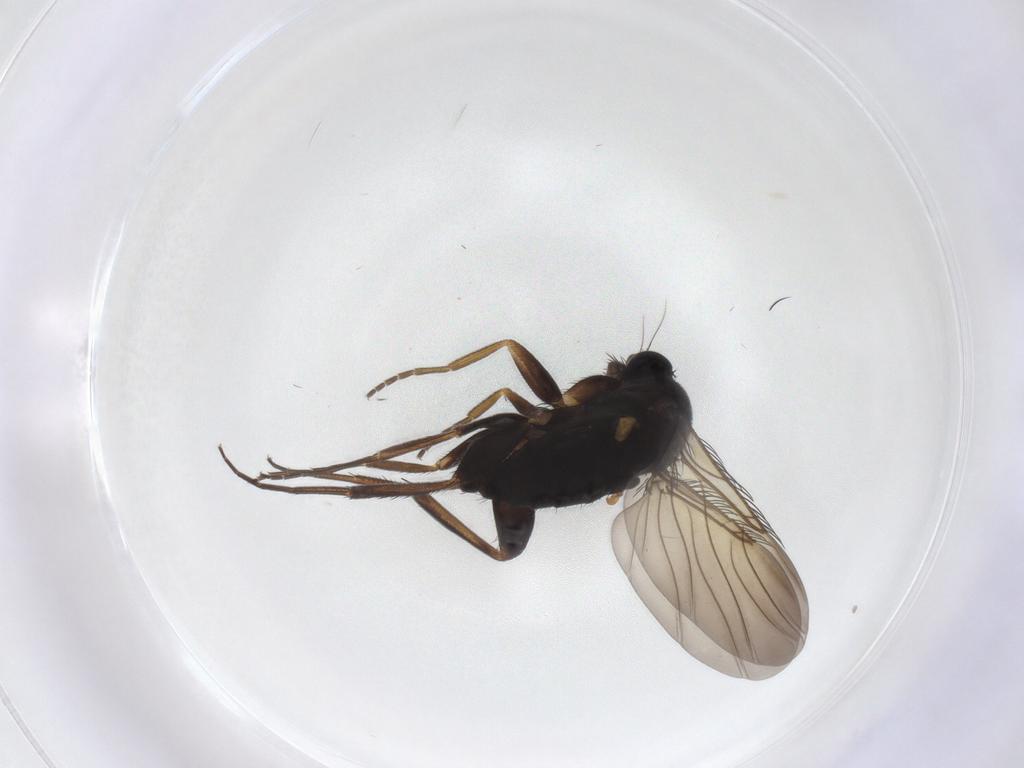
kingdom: Animalia
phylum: Arthropoda
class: Insecta
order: Diptera
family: Phoridae
